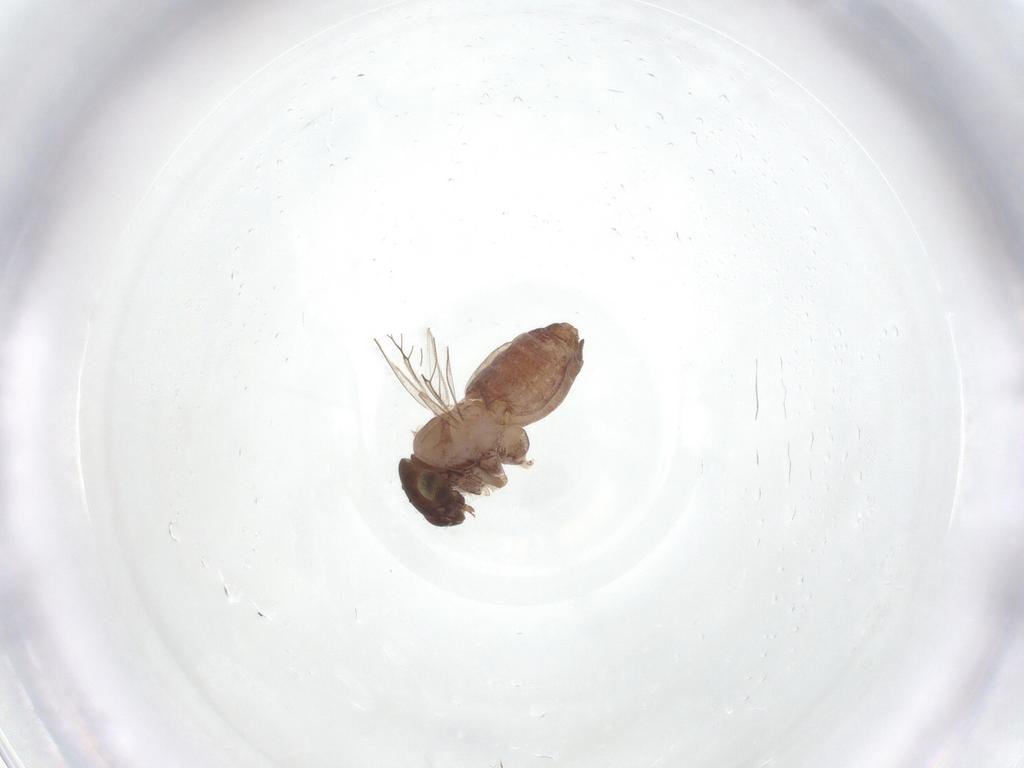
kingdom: Animalia
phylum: Arthropoda
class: Insecta
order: Psocodea
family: Lepidopsocidae
